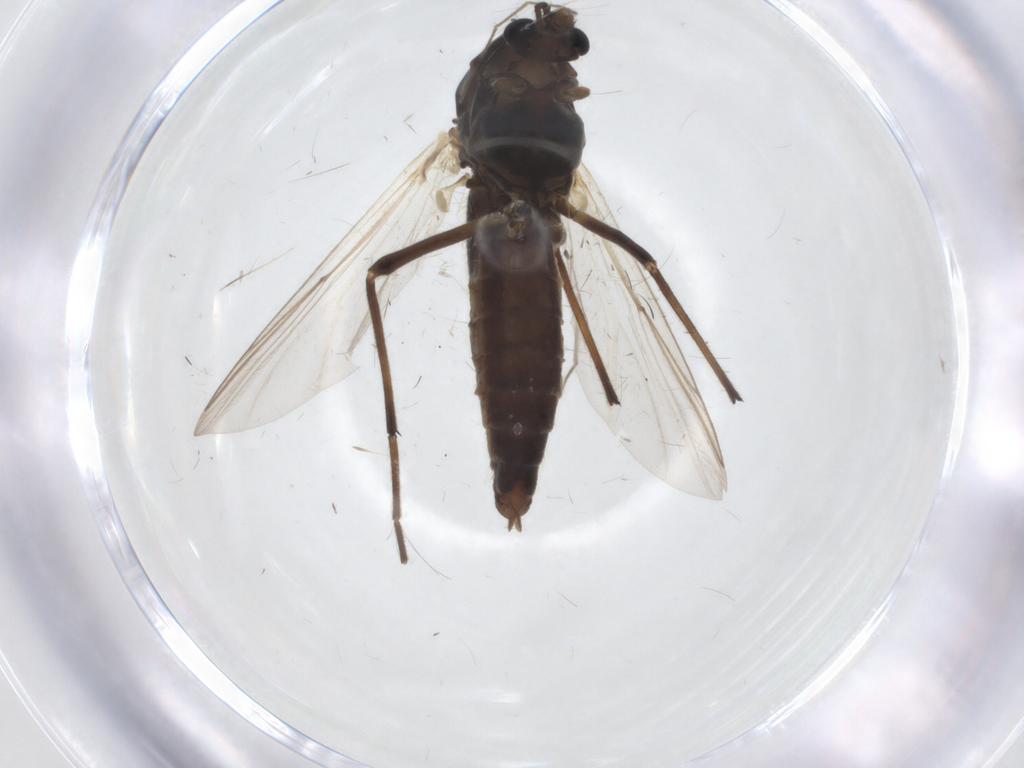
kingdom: Animalia
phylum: Arthropoda
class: Insecta
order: Diptera
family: Chironomidae
